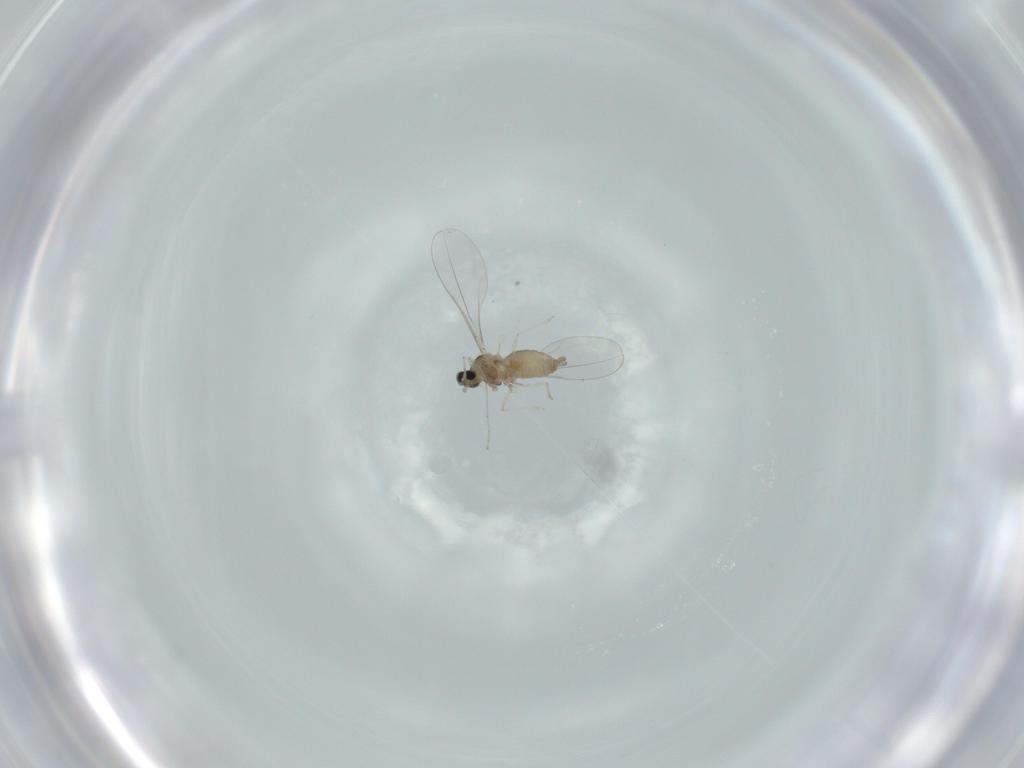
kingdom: Animalia
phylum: Arthropoda
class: Insecta
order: Diptera
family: Cecidomyiidae
